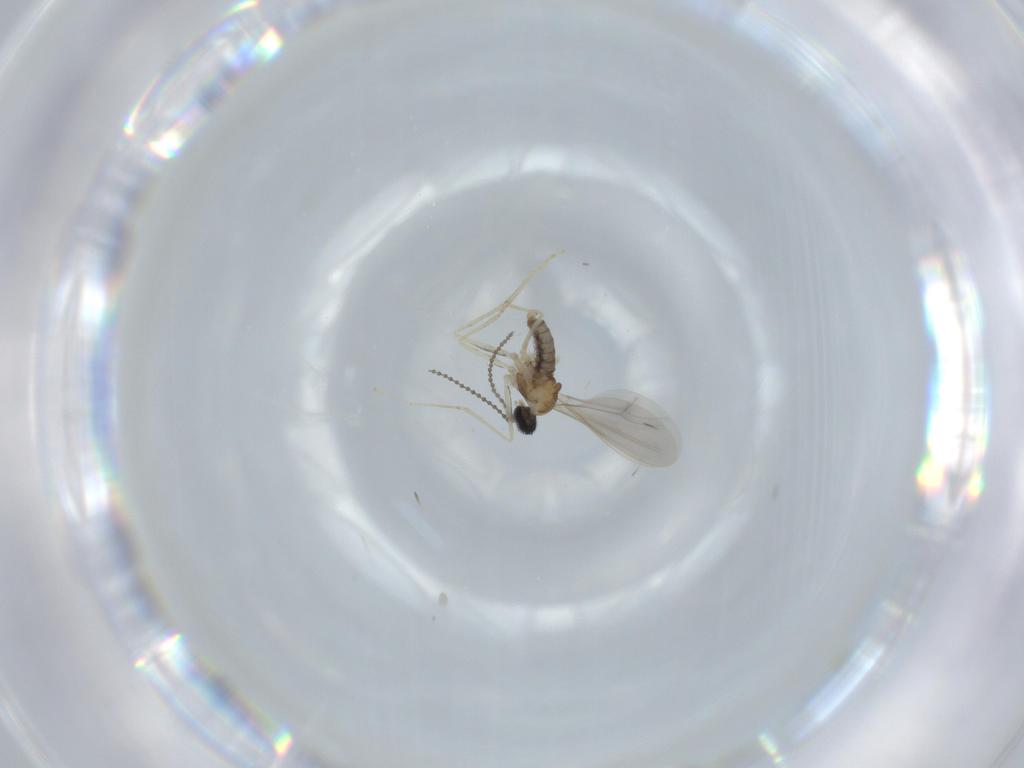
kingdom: Animalia
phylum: Arthropoda
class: Insecta
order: Diptera
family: Cecidomyiidae
